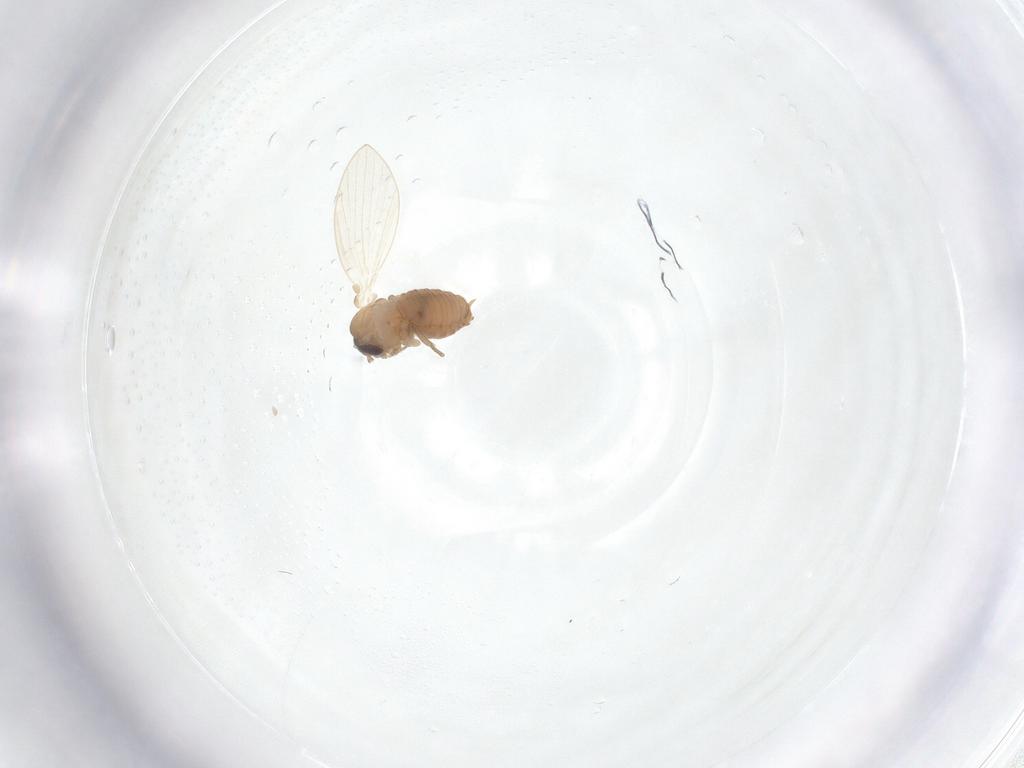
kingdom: Animalia
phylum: Arthropoda
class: Insecta
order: Diptera
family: Psychodidae
